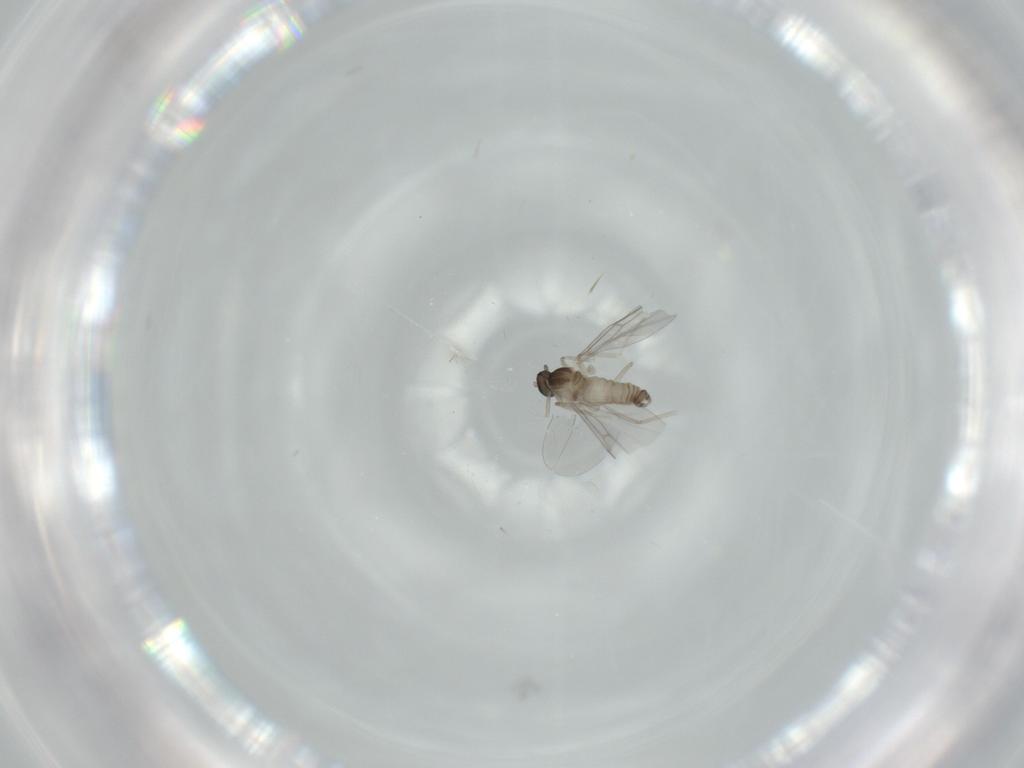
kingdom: Animalia
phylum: Arthropoda
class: Insecta
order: Diptera
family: Cecidomyiidae
